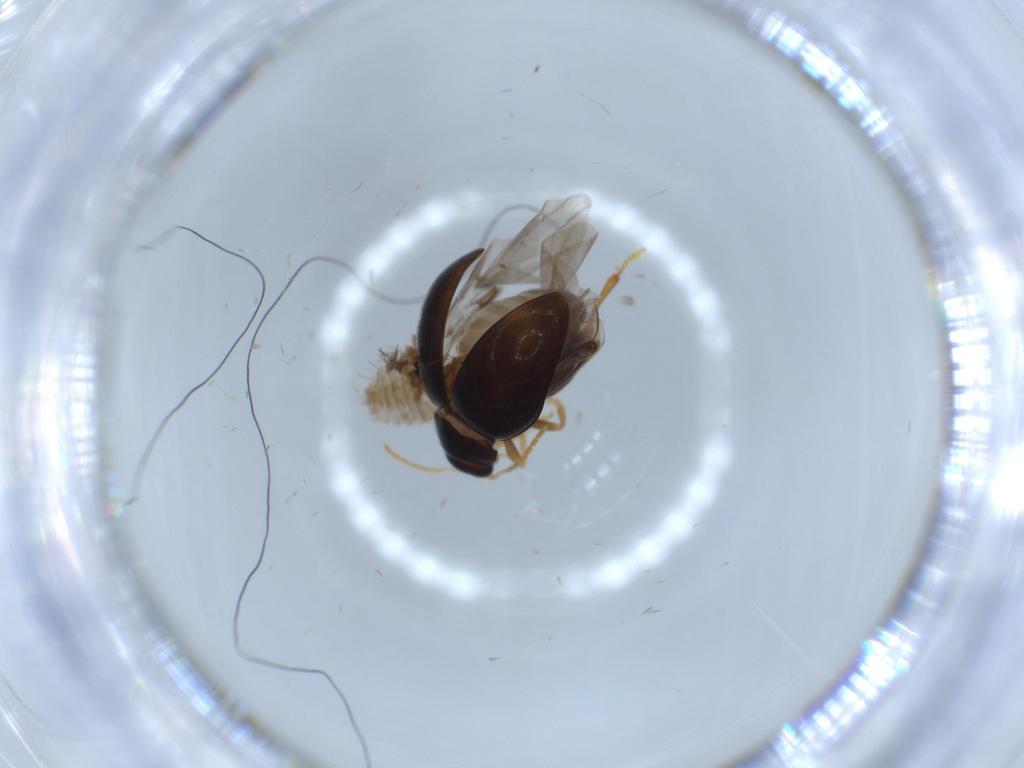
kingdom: Animalia
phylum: Arthropoda
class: Insecta
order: Coleoptera
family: Chrysomelidae
